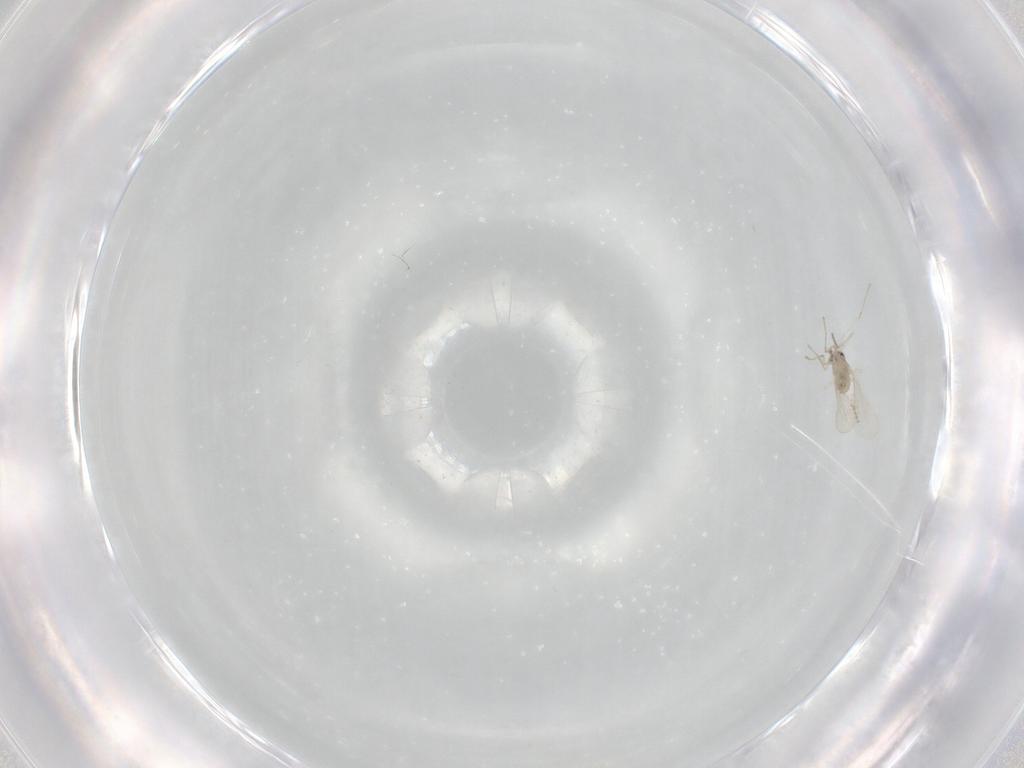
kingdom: Animalia
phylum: Arthropoda
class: Insecta
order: Diptera
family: Cecidomyiidae
